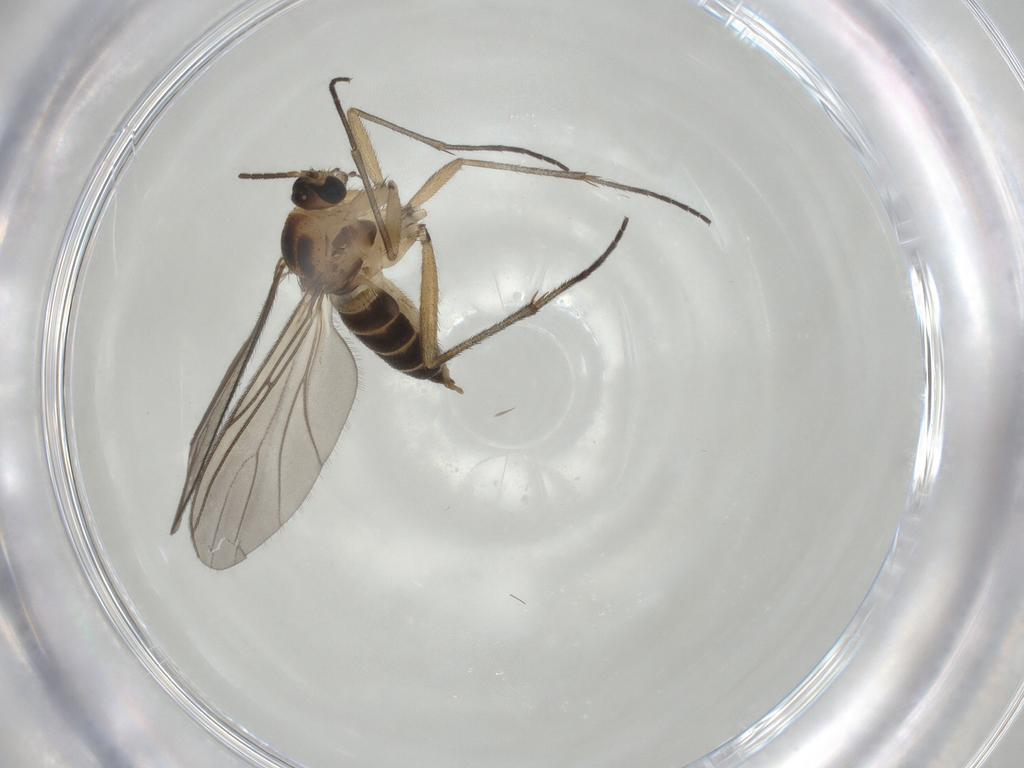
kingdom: Animalia
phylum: Arthropoda
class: Insecta
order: Diptera
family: Sciaridae
